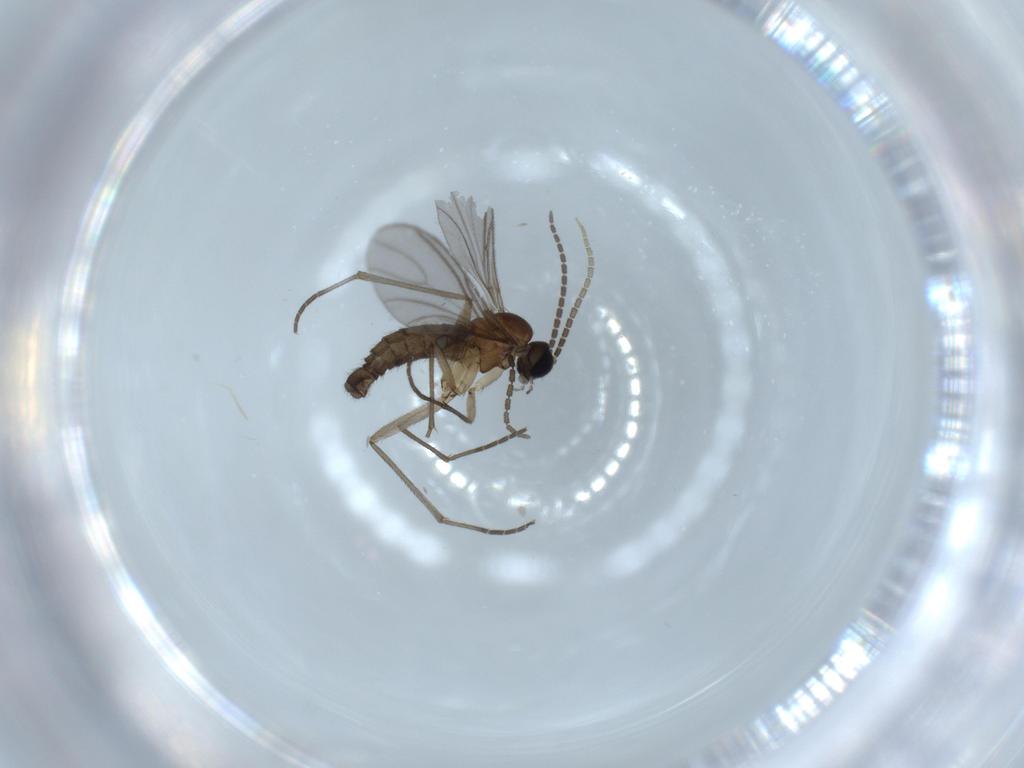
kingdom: Animalia
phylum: Arthropoda
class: Insecta
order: Diptera
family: Sciaridae
